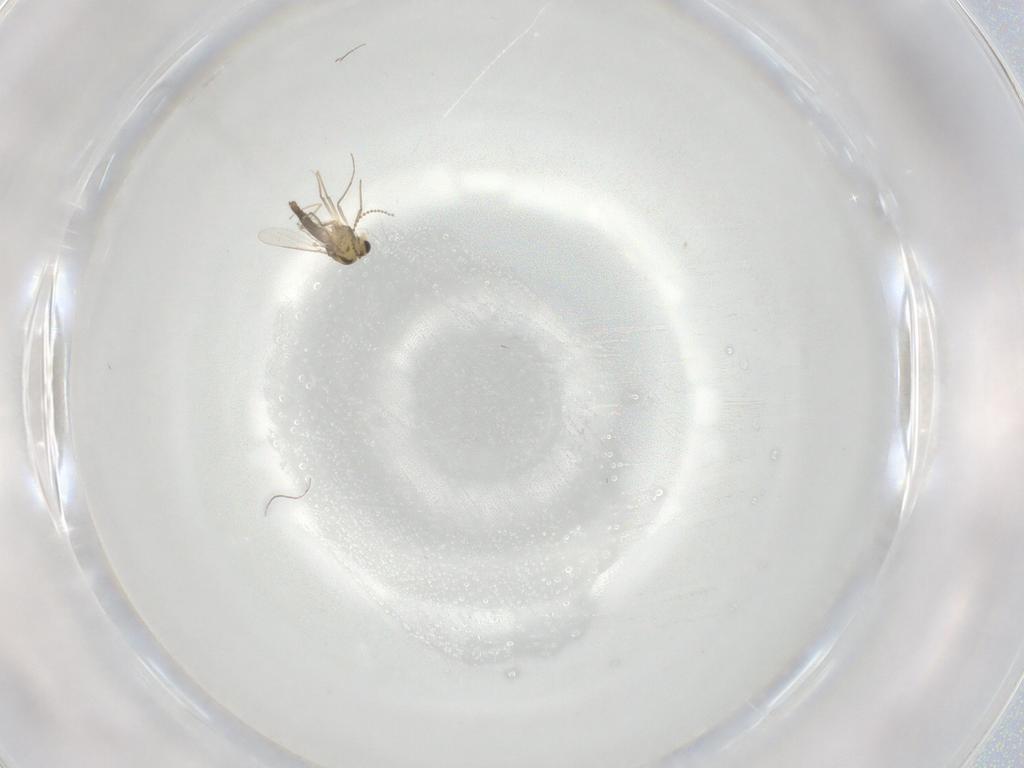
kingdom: Animalia
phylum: Arthropoda
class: Insecta
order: Diptera
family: Chironomidae
